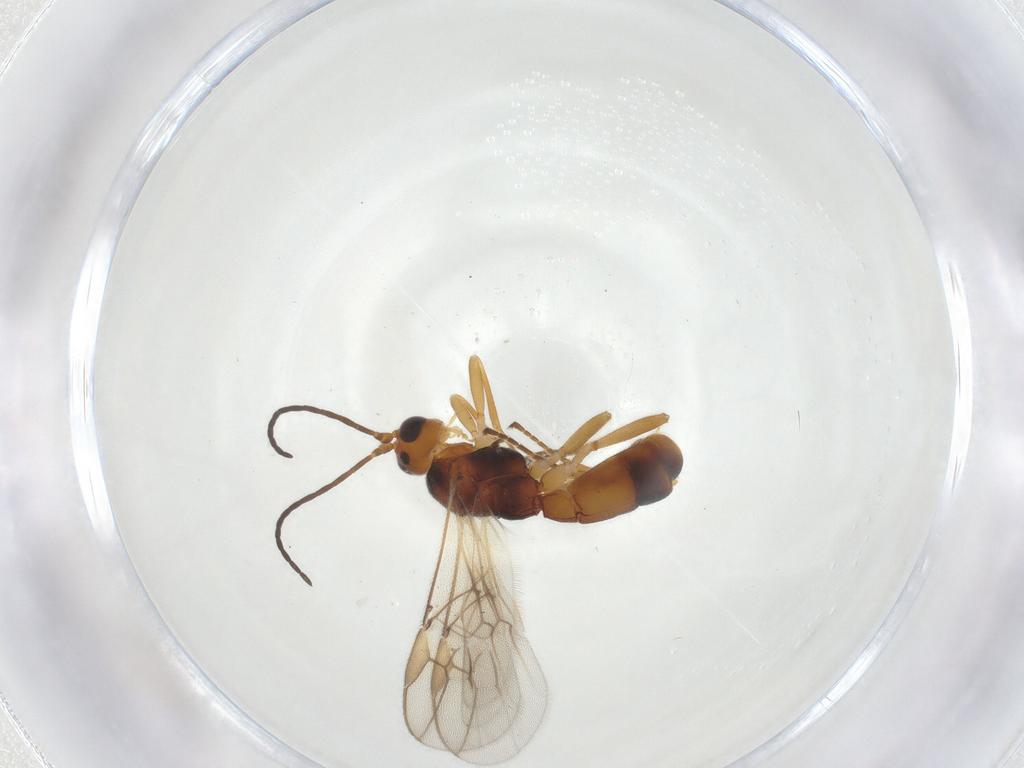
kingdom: Animalia
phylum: Arthropoda
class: Insecta
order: Hymenoptera
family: Braconidae
